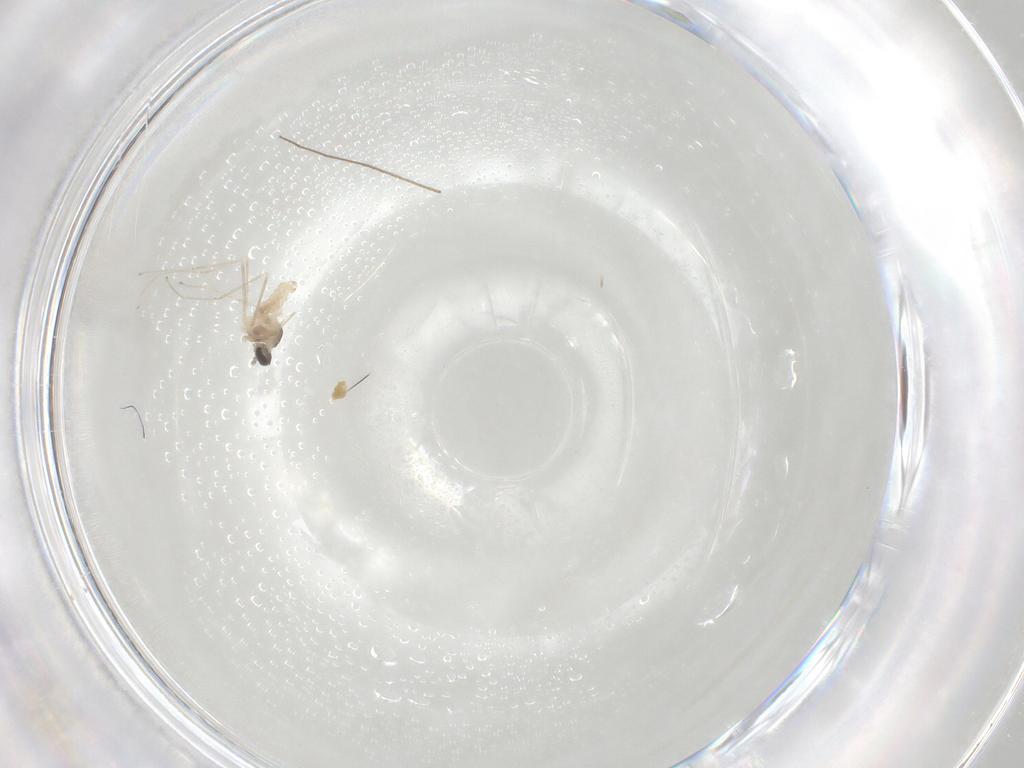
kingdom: Animalia
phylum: Arthropoda
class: Insecta
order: Diptera
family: Cecidomyiidae
